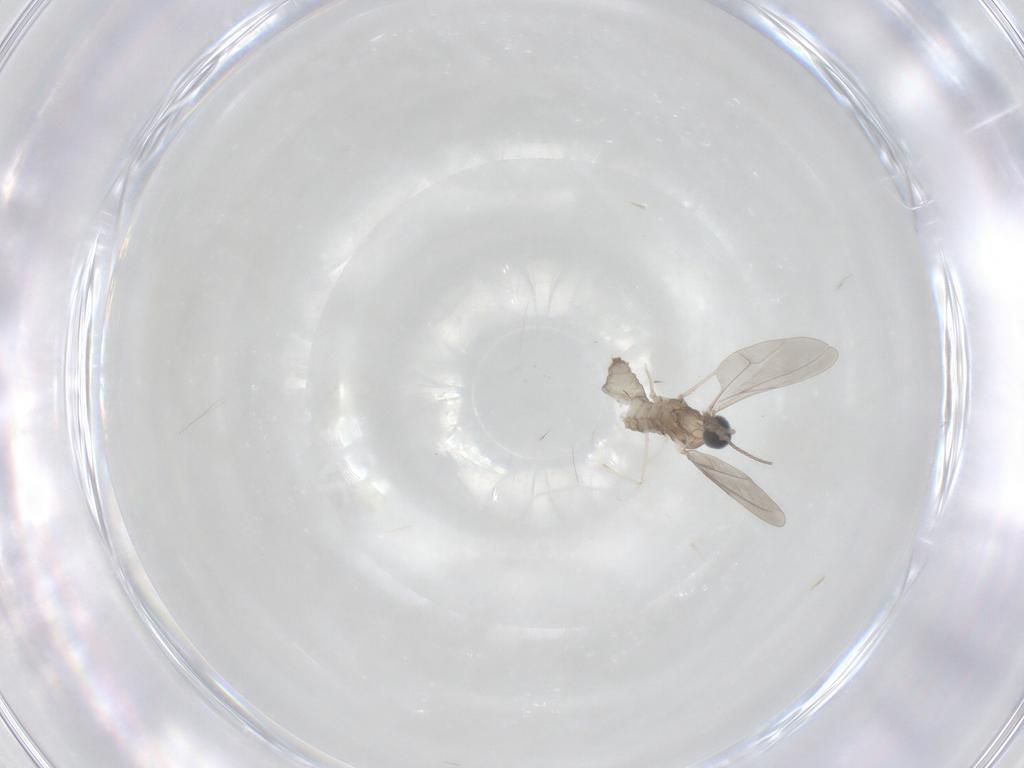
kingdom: Animalia
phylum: Arthropoda
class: Insecta
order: Diptera
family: Cecidomyiidae
